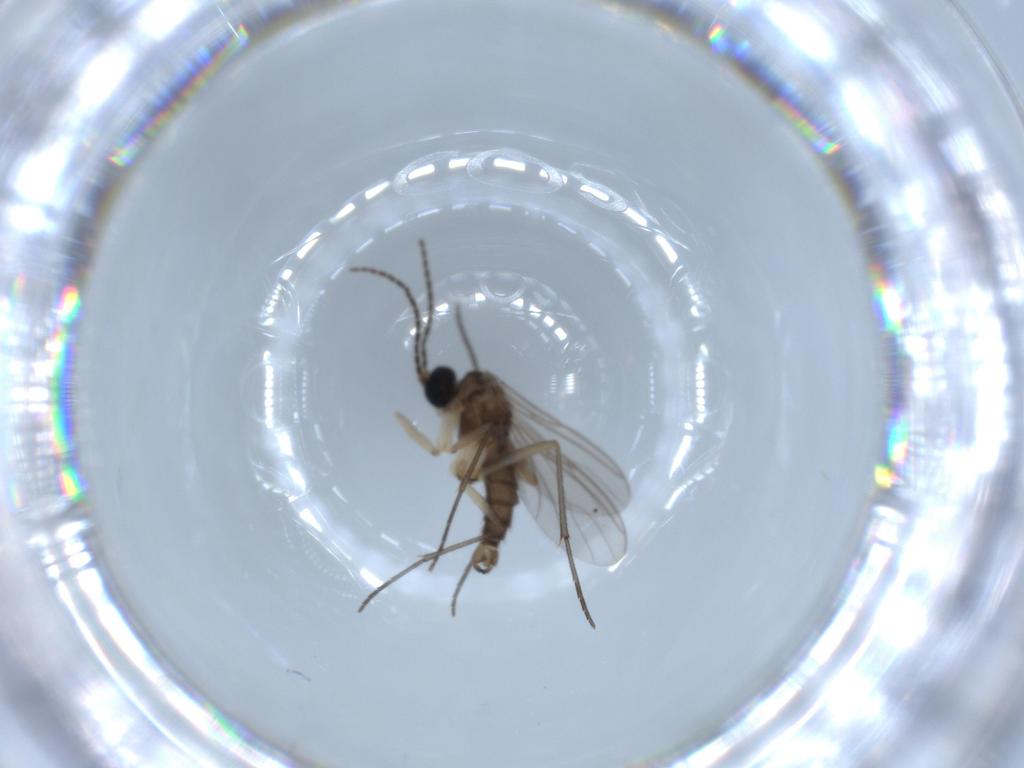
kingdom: Animalia
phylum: Arthropoda
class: Insecta
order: Diptera
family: Sciaridae
